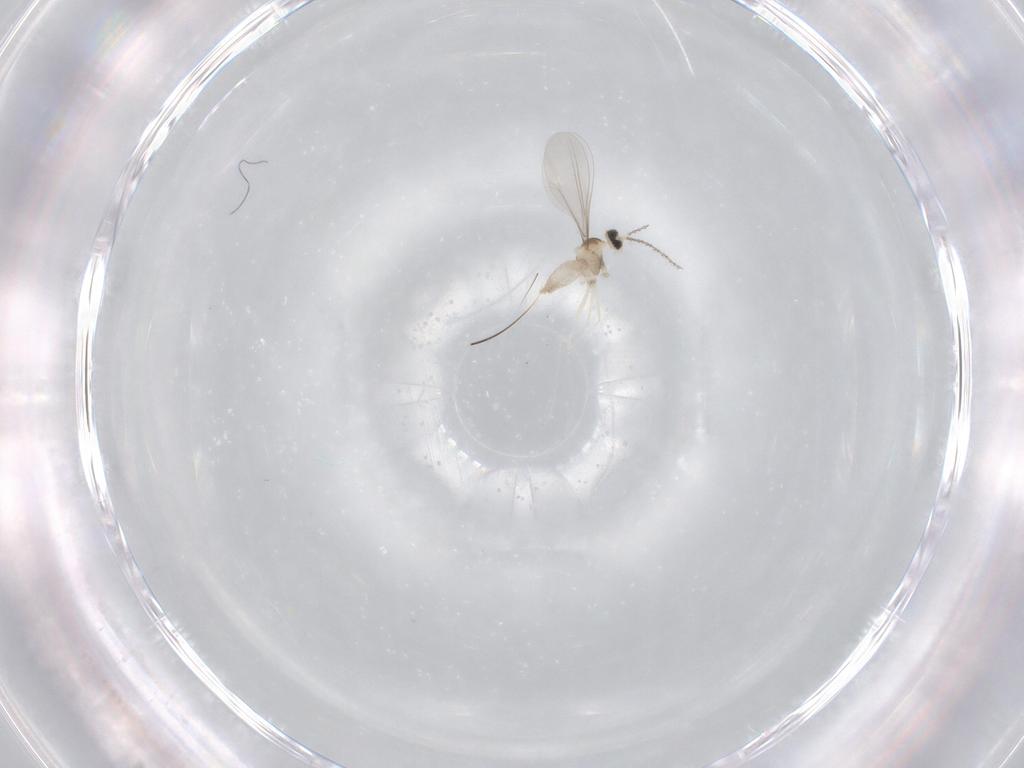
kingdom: Animalia
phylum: Arthropoda
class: Insecta
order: Diptera
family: Cecidomyiidae
